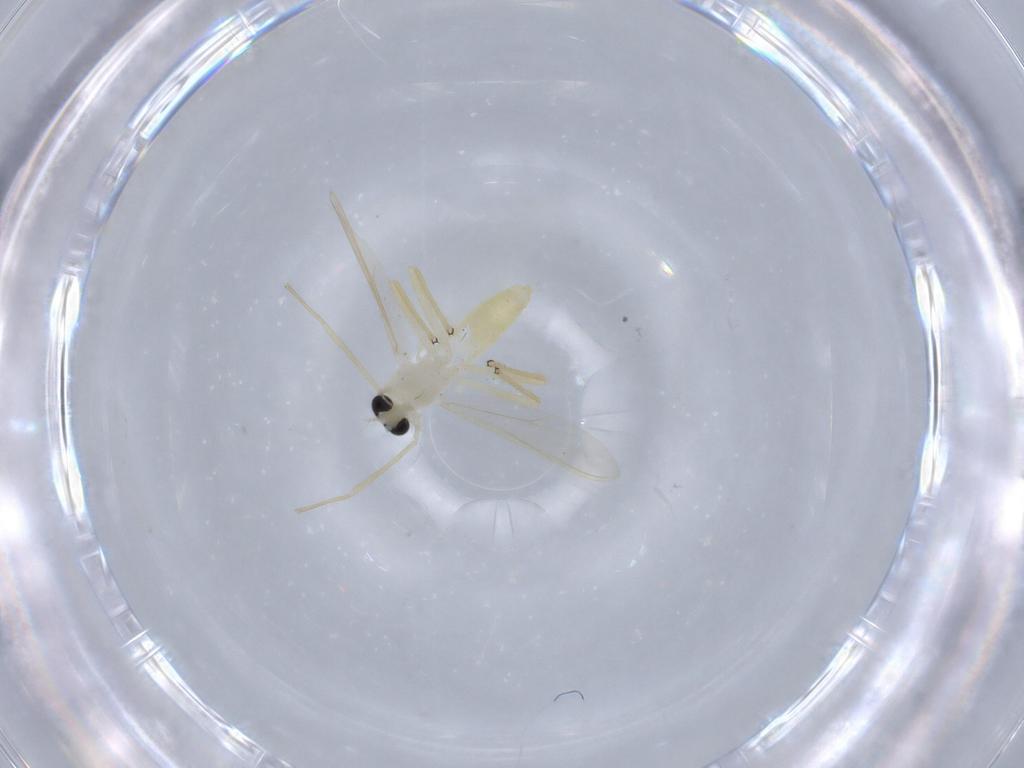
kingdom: Animalia
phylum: Arthropoda
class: Insecta
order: Diptera
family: Chironomidae
